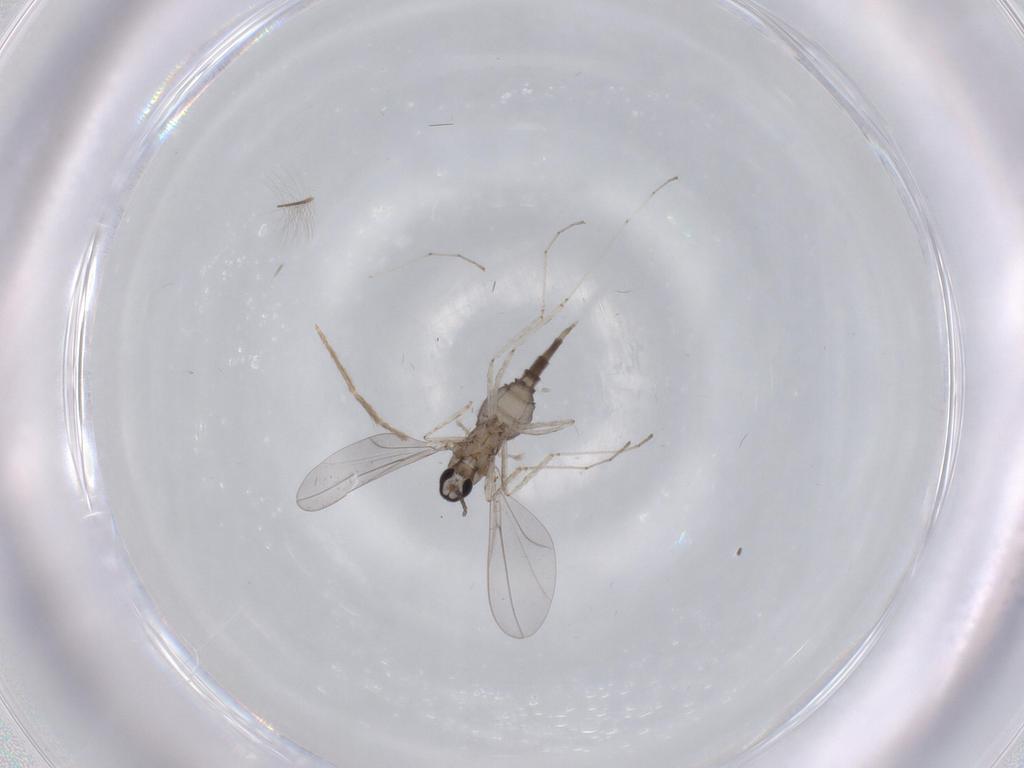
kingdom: Animalia
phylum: Arthropoda
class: Insecta
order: Diptera
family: Cecidomyiidae
